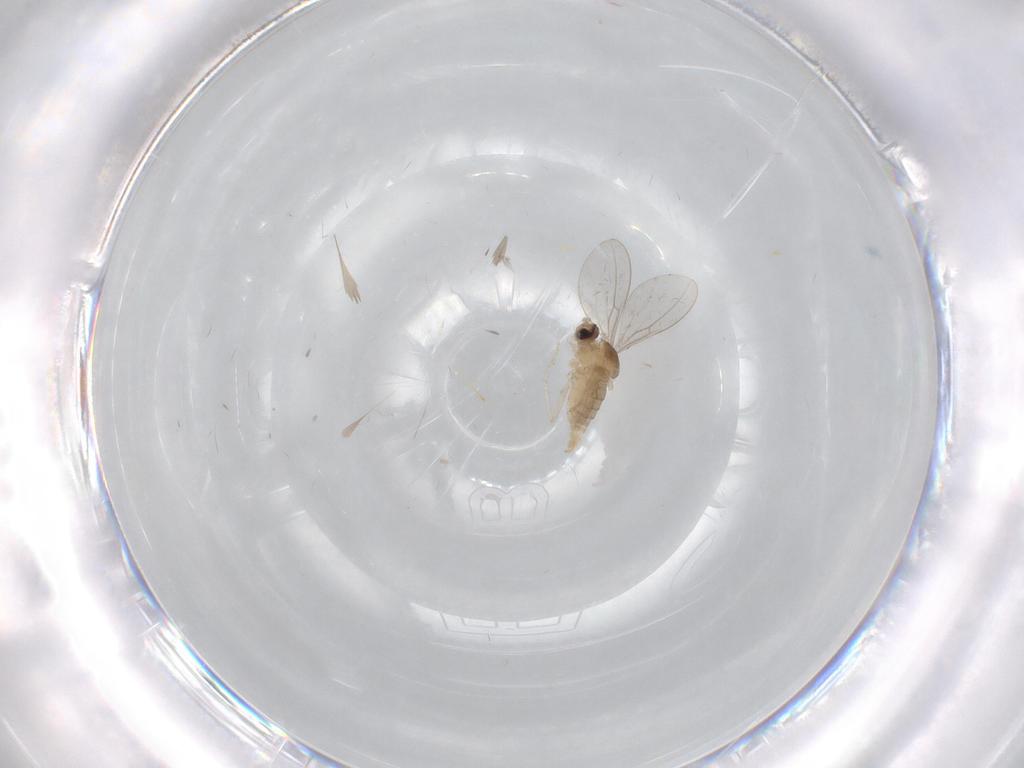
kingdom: Animalia
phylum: Arthropoda
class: Insecta
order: Diptera
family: Cecidomyiidae
